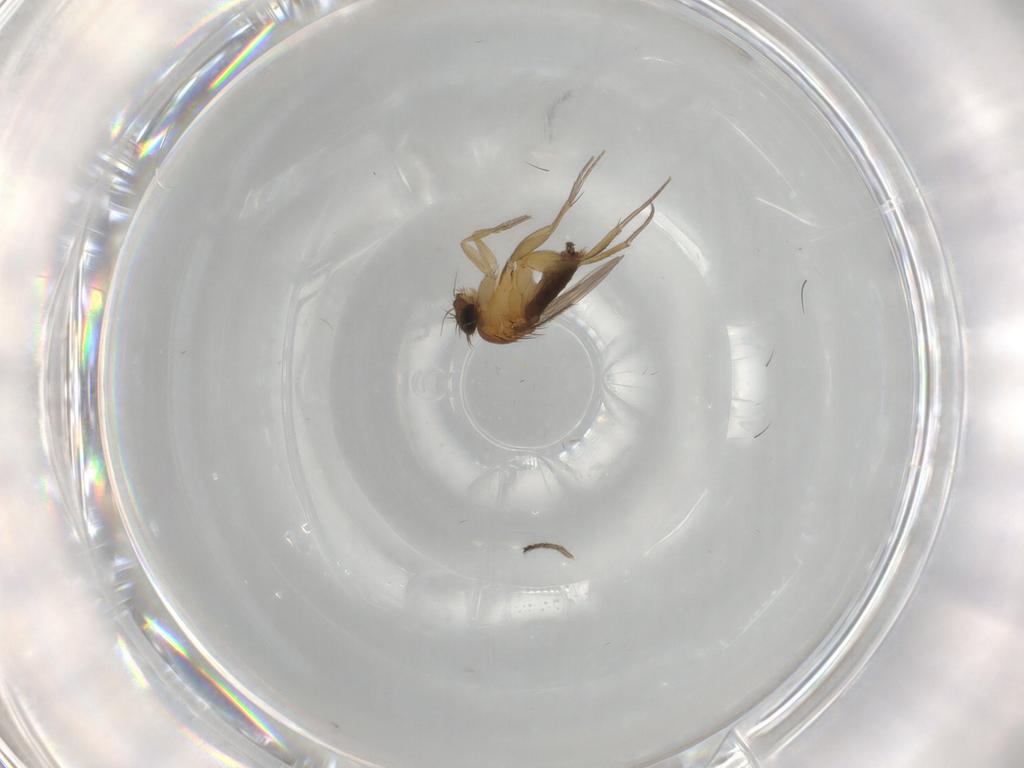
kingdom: Animalia
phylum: Arthropoda
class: Insecta
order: Diptera
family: Phoridae
